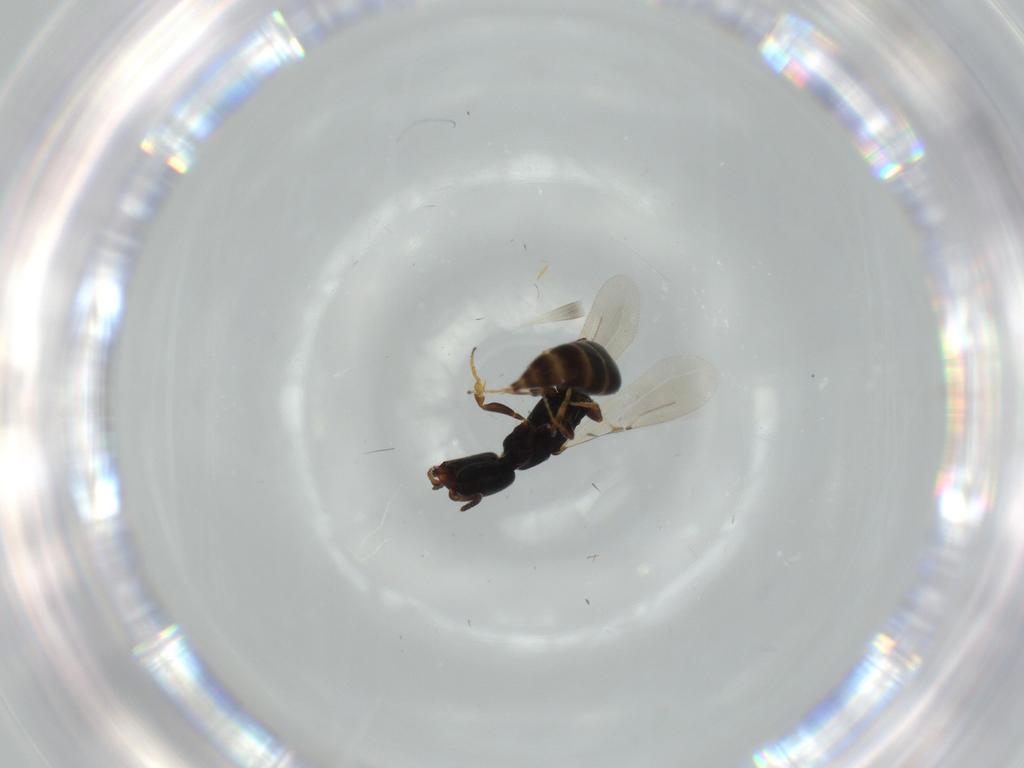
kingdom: Animalia
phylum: Arthropoda
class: Insecta
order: Hymenoptera
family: Bethylidae
